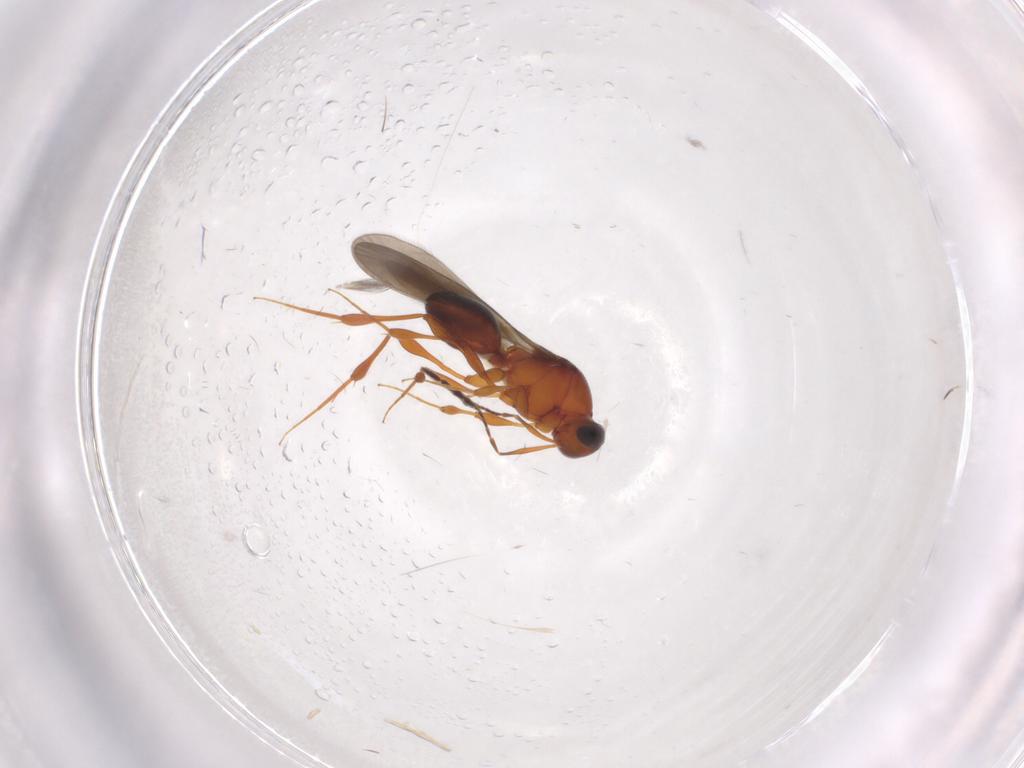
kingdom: Animalia
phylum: Arthropoda
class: Insecta
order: Hymenoptera
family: Platygastridae
